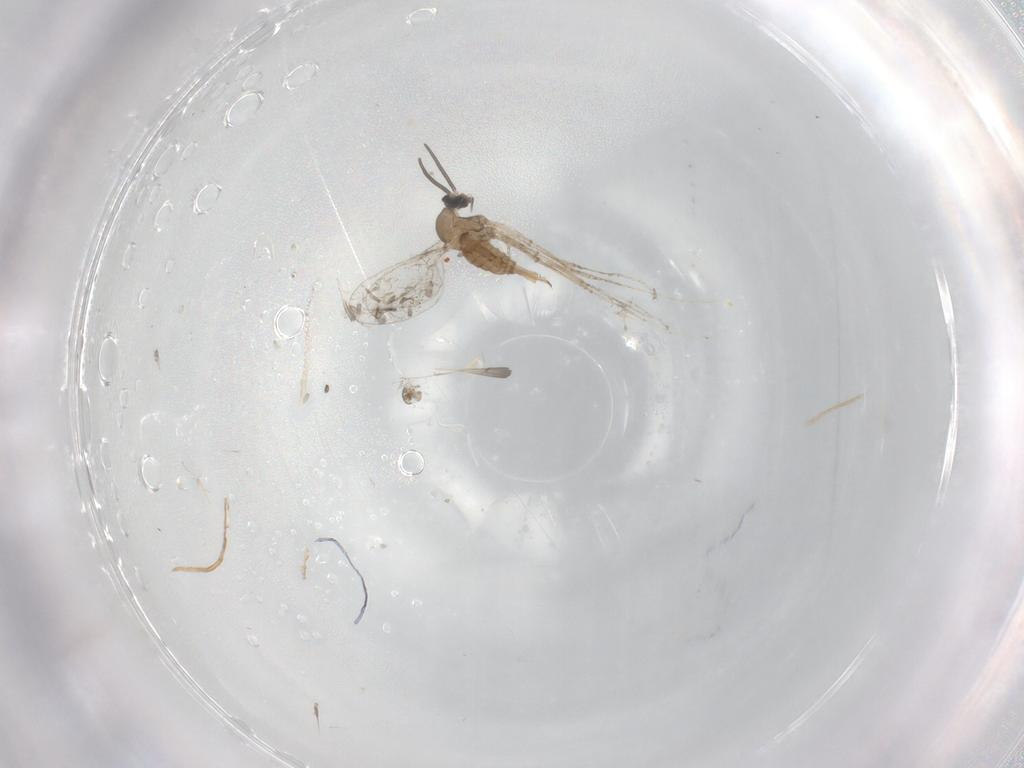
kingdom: Animalia
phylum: Arthropoda
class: Insecta
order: Diptera
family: Cecidomyiidae
